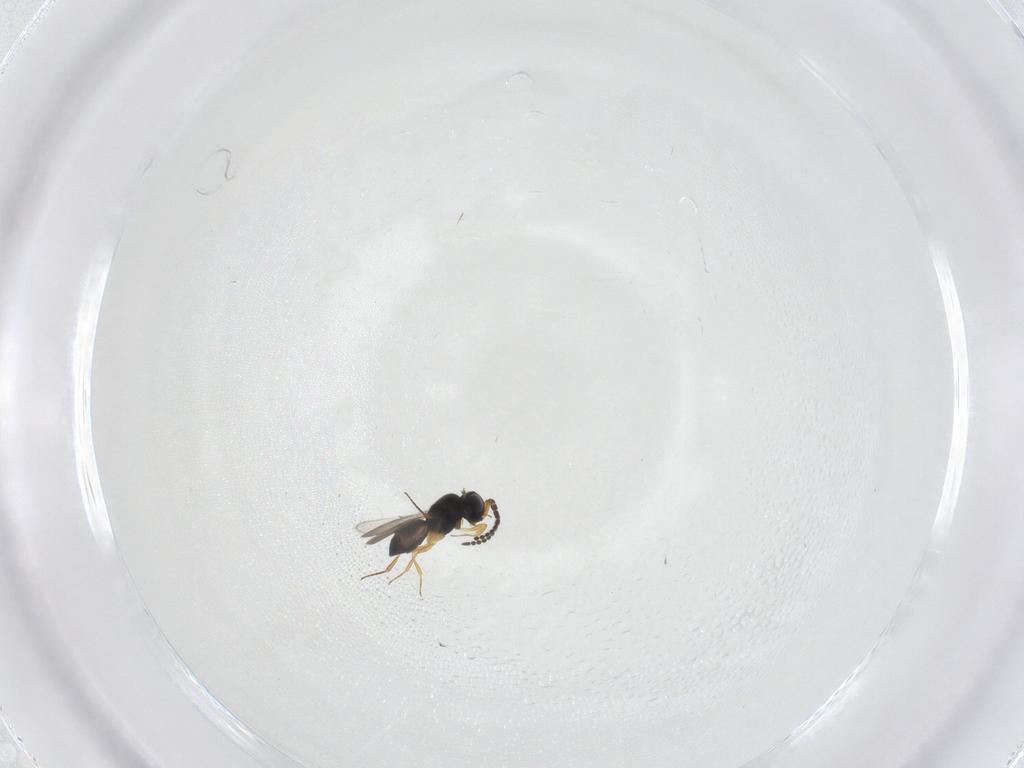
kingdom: Animalia
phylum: Arthropoda
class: Insecta
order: Hymenoptera
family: Scelionidae
